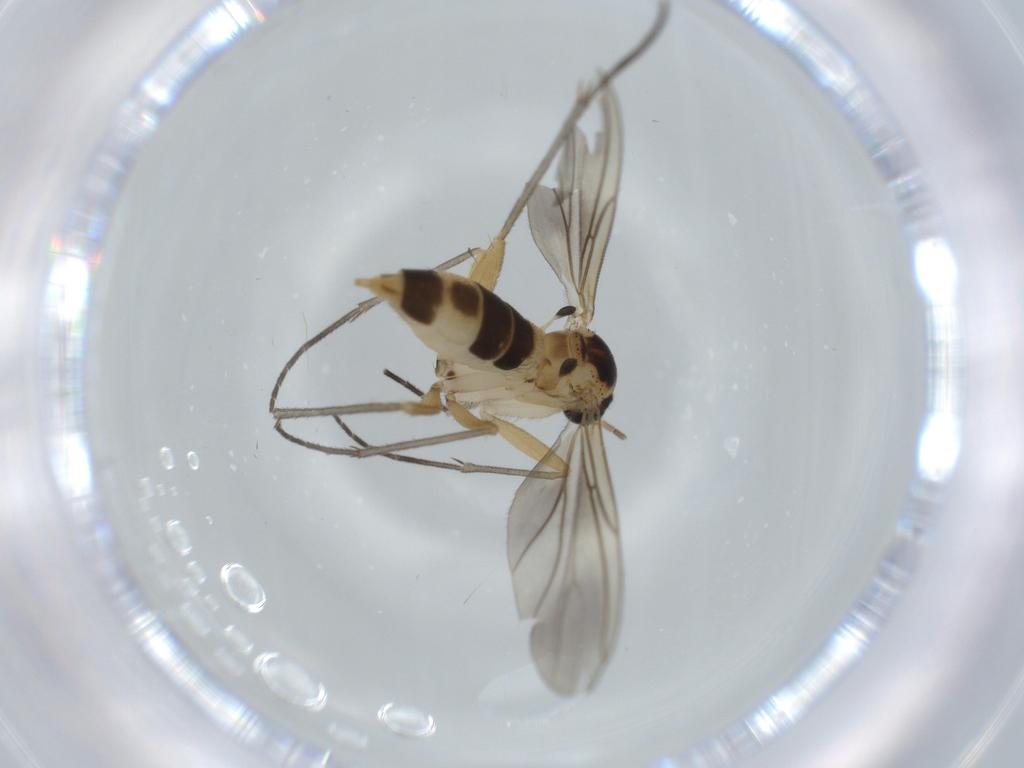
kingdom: Animalia
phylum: Arthropoda
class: Insecta
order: Diptera
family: Sciaridae
